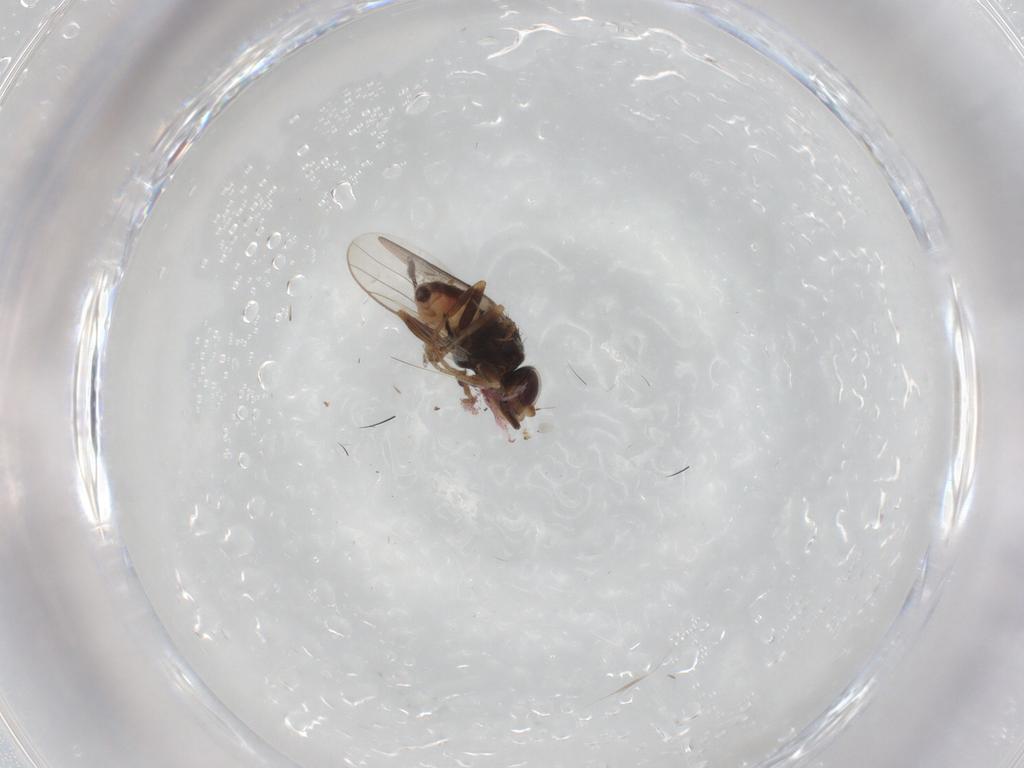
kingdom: Animalia
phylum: Arthropoda
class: Insecta
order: Diptera
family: Chloropidae
